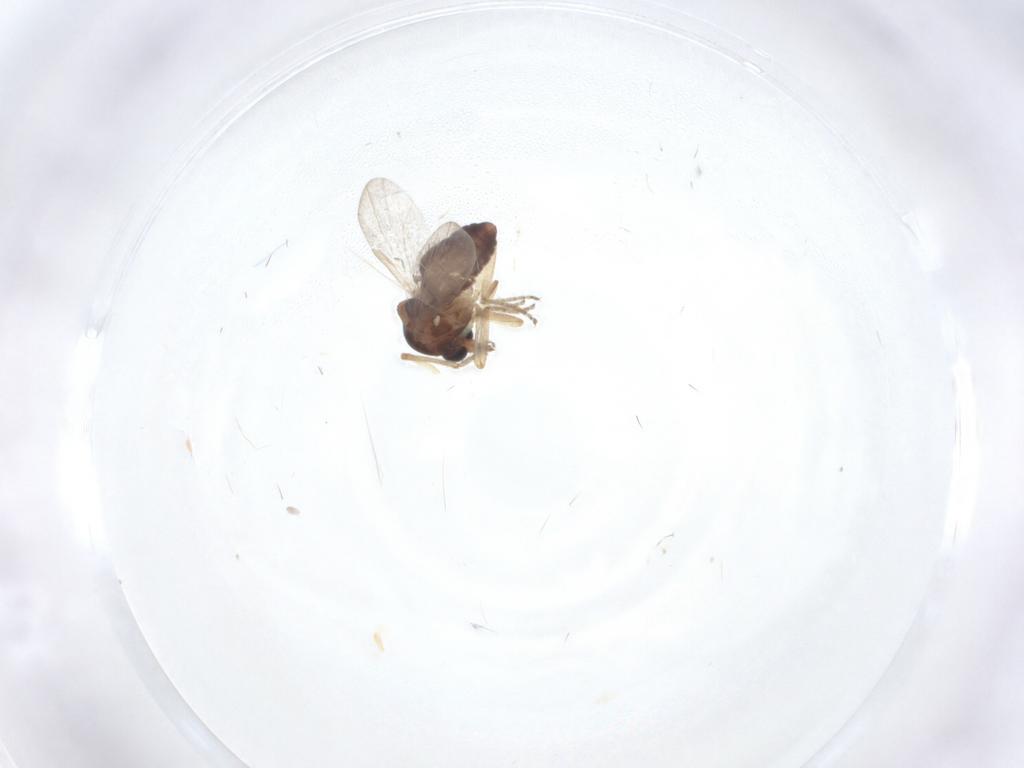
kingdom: Animalia
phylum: Arthropoda
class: Insecta
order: Diptera
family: Ceratopogonidae
